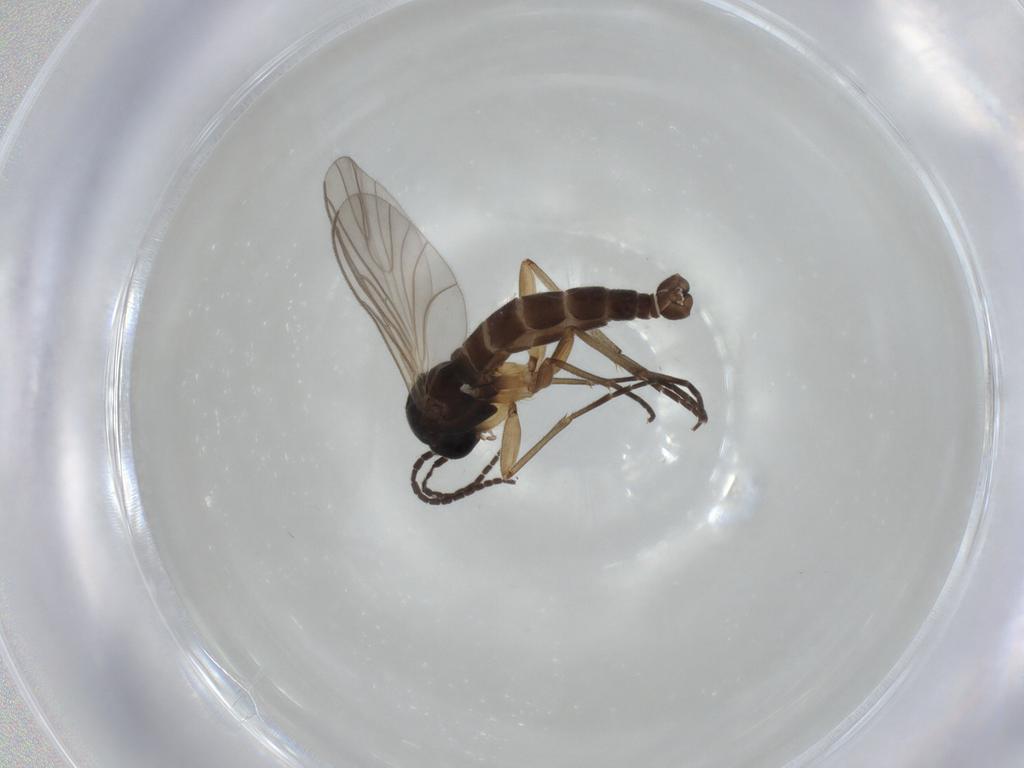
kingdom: Animalia
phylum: Arthropoda
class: Insecta
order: Diptera
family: Sciaridae
